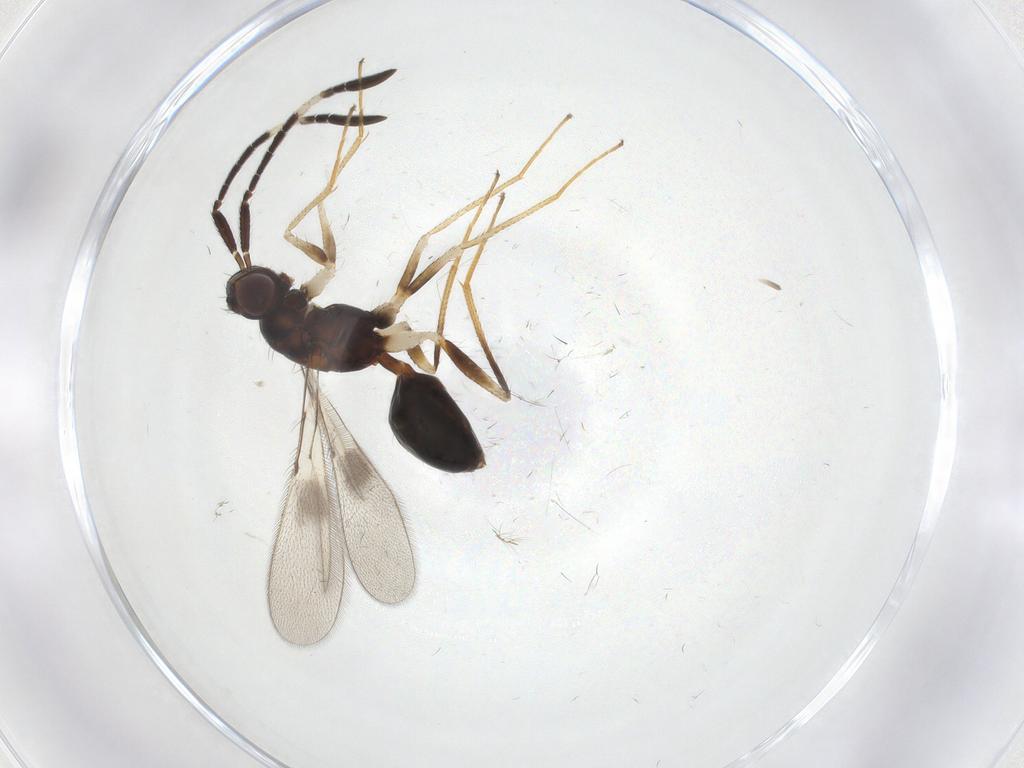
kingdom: Animalia
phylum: Arthropoda
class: Insecta
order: Hymenoptera
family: Mymaridae
